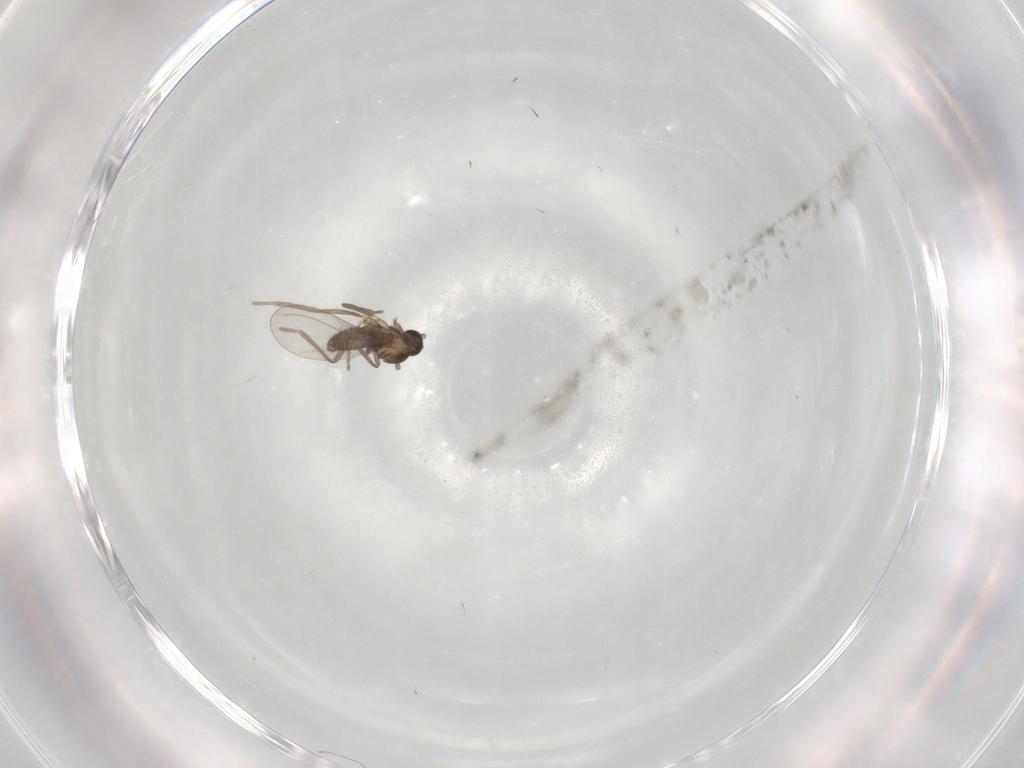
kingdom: Animalia
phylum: Arthropoda
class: Insecta
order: Diptera
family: Cecidomyiidae
